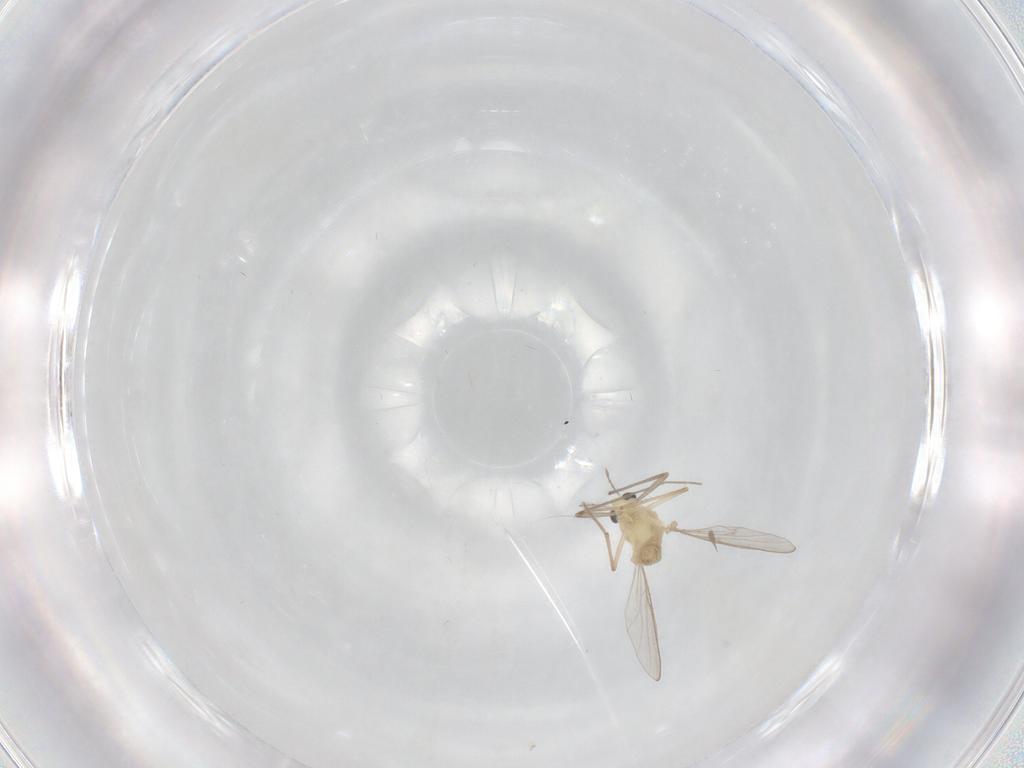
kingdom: Animalia
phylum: Arthropoda
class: Insecta
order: Diptera
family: Chironomidae
